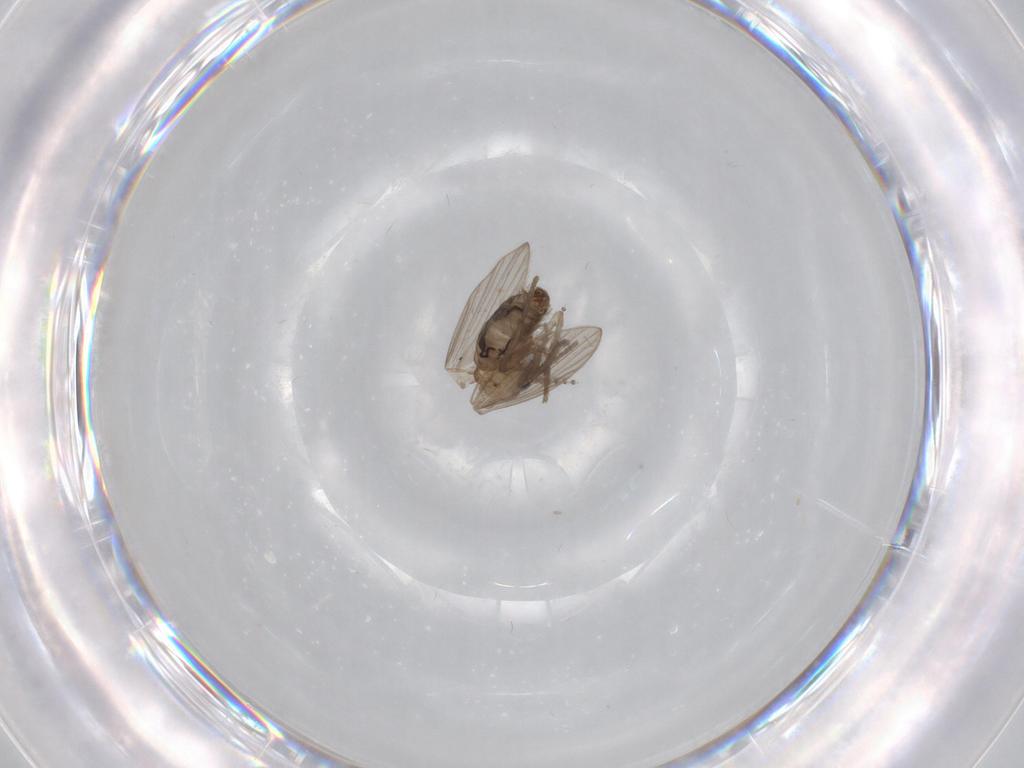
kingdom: Animalia
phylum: Arthropoda
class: Insecta
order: Diptera
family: Psychodidae
